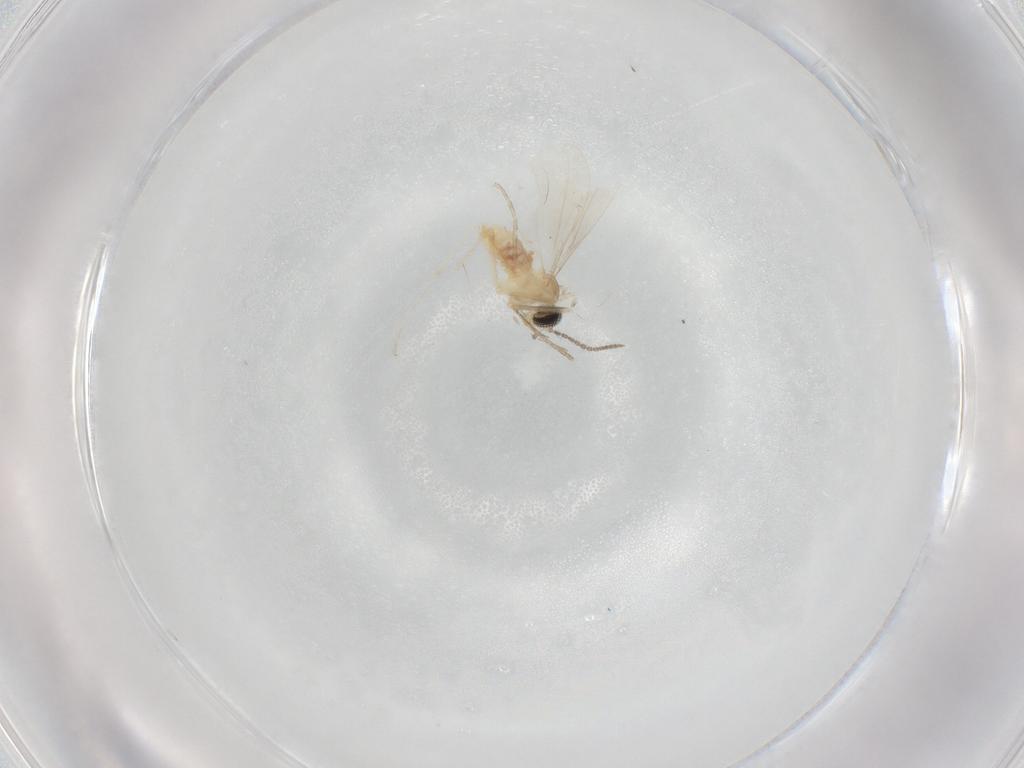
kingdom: Animalia
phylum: Arthropoda
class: Insecta
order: Diptera
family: Cecidomyiidae
